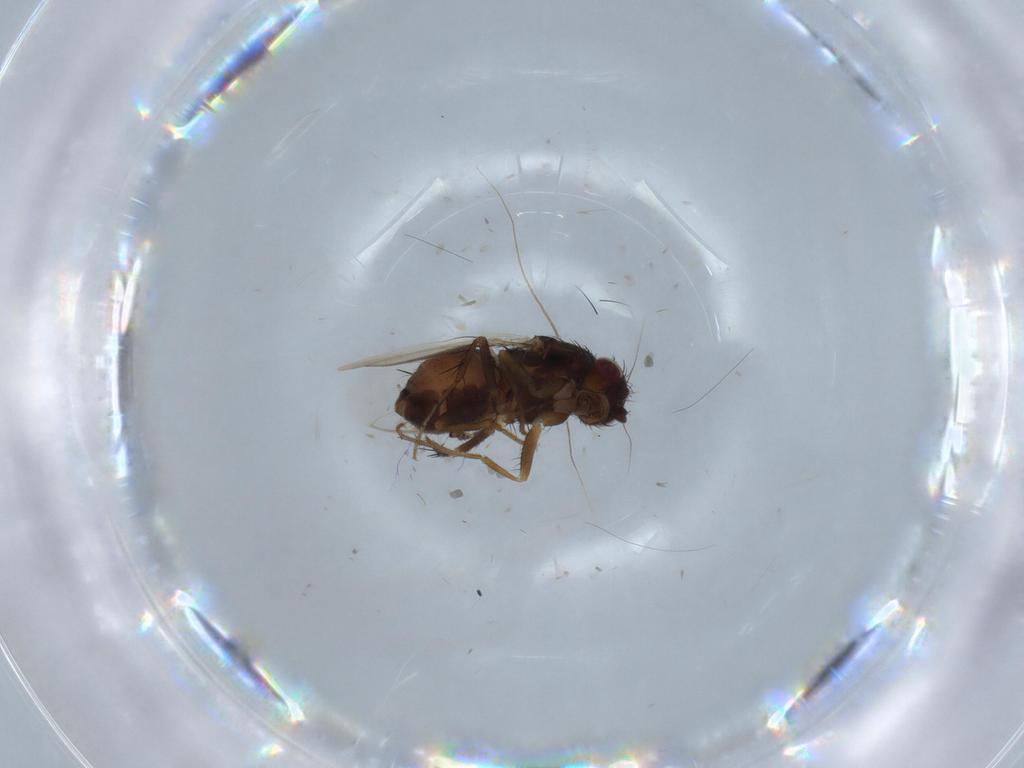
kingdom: Animalia
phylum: Arthropoda
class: Insecta
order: Diptera
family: Sphaeroceridae
